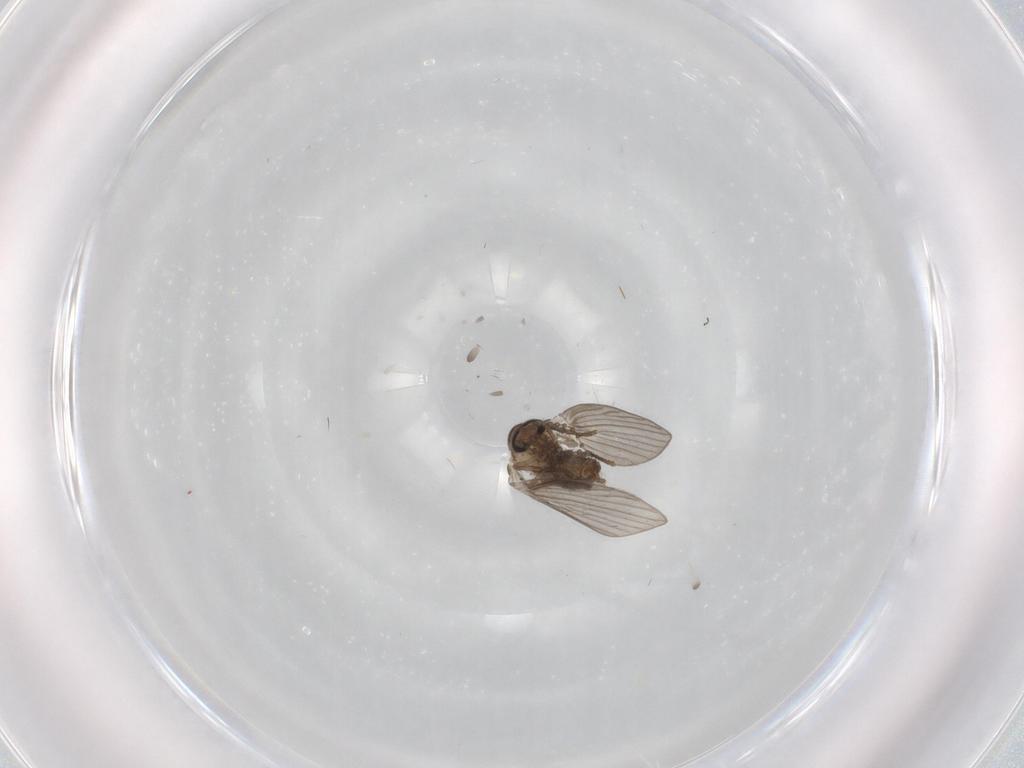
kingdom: Animalia
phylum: Arthropoda
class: Insecta
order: Diptera
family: Psychodidae
